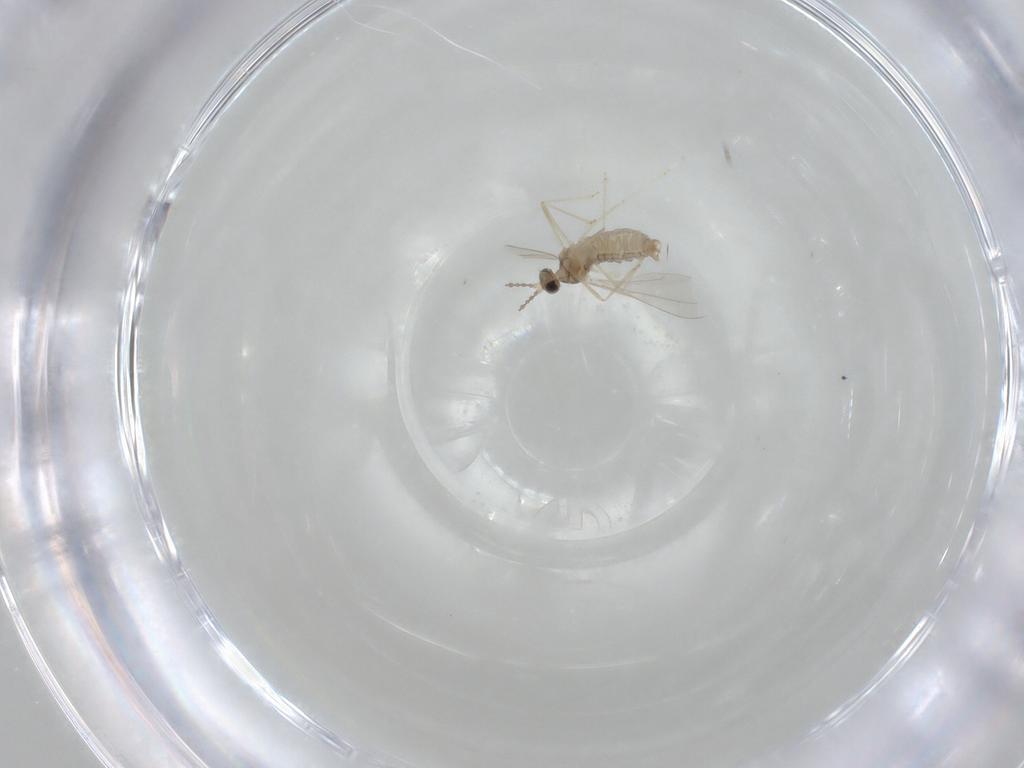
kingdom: Animalia
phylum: Arthropoda
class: Insecta
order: Diptera
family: Cecidomyiidae
